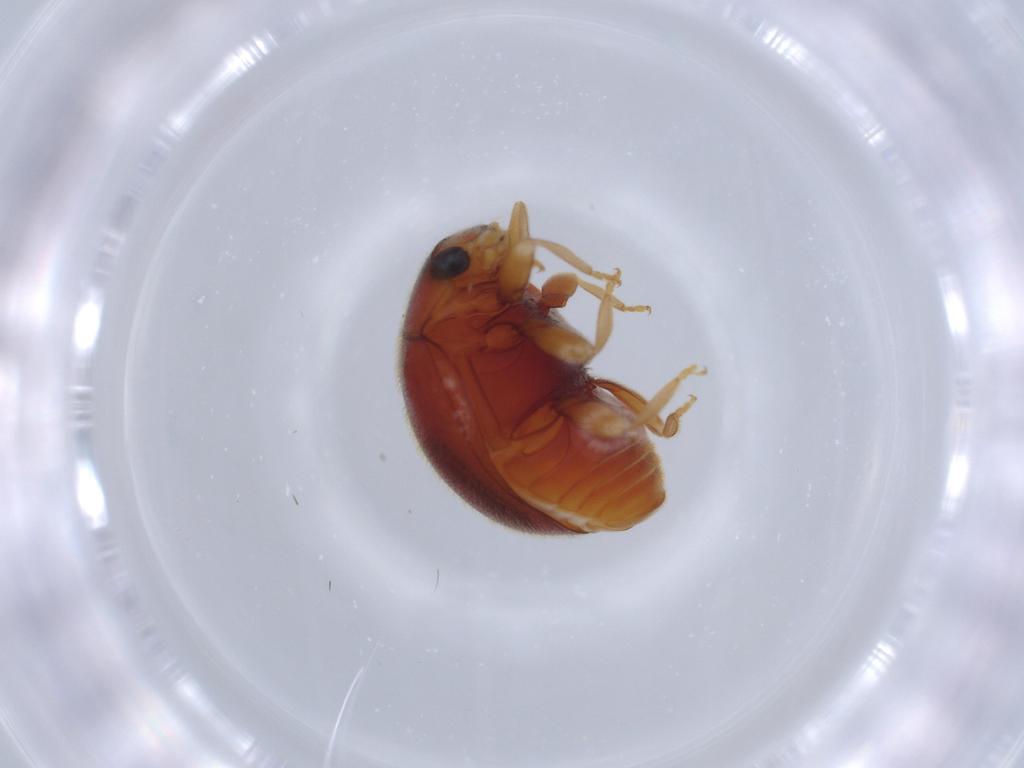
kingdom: Animalia
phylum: Arthropoda
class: Insecta
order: Coleoptera
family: Coccinellidae
